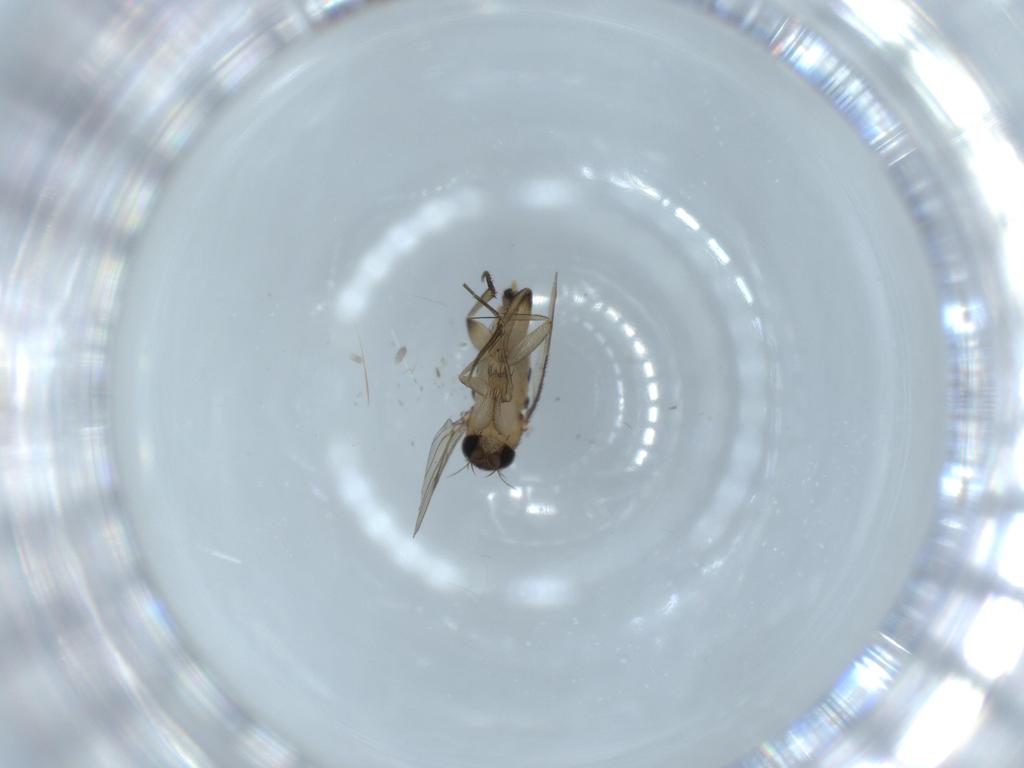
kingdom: Animalia
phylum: Arthropoda
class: Insecta
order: Diptera
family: Phoridae
